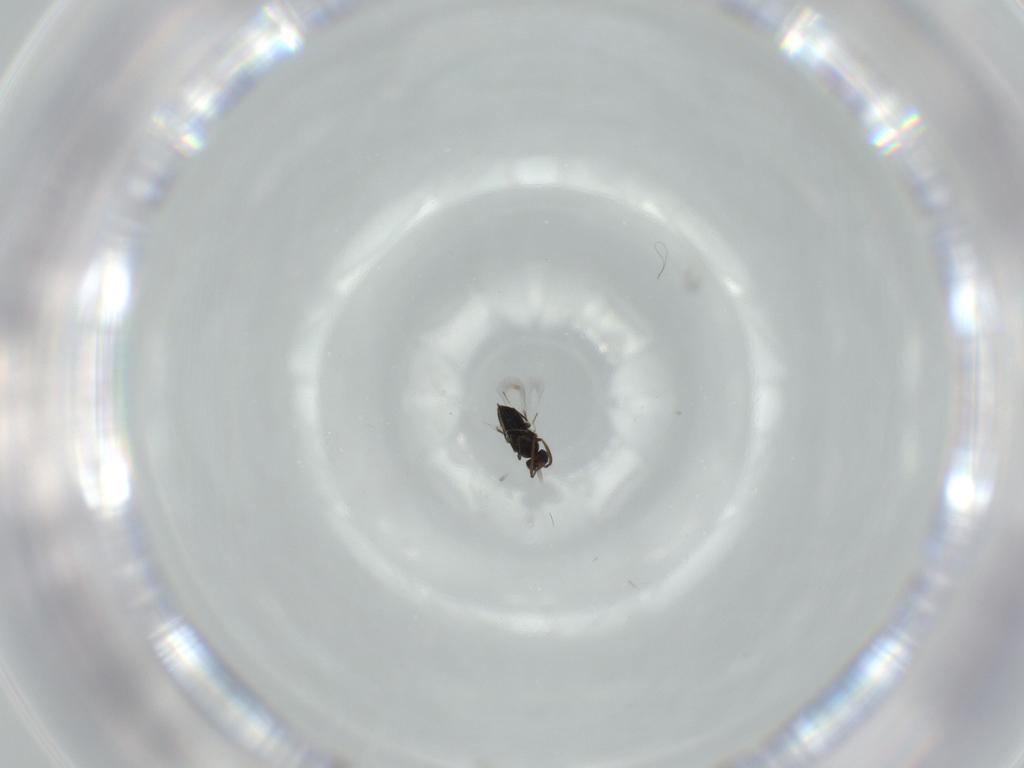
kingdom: Animalia
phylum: Arthropoda
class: Insecta
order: Hymenoptera
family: Signiphoridae
